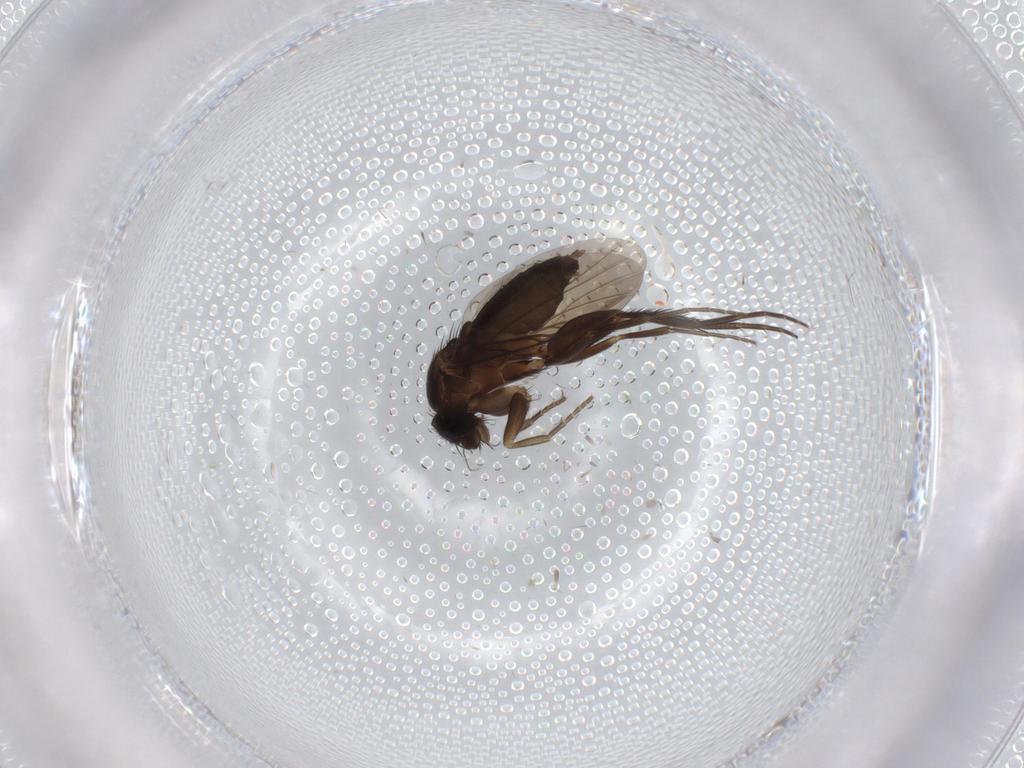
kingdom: Animalia
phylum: Arthropoda
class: Insecta
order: Diptera
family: Phoridae
